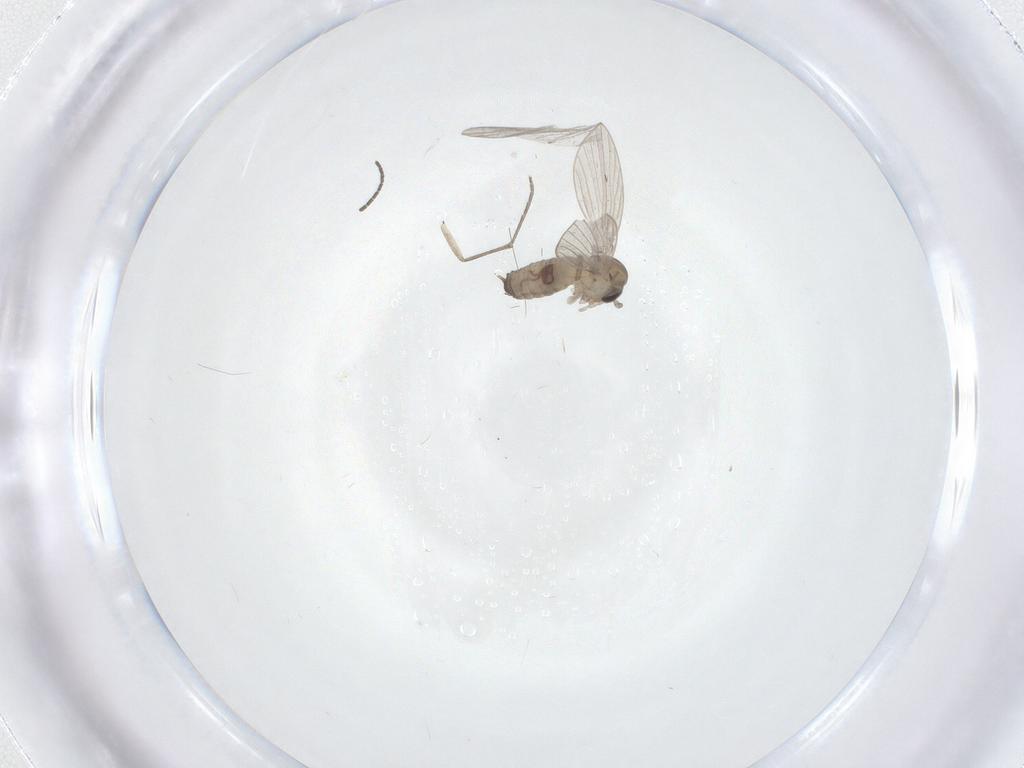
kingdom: Animalia
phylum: Arthropoda
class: Insecta
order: Diptera
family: Psychodidae
